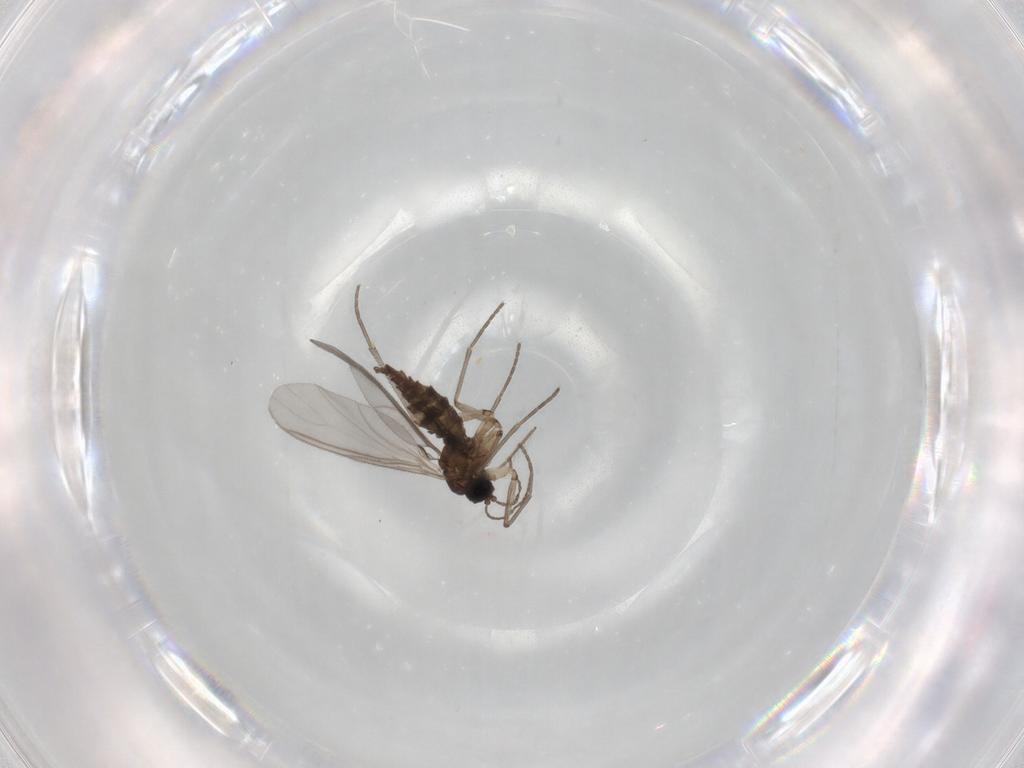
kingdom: Animalia
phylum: Arthropoda
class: Insecta
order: Diptera
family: Sciaridae
